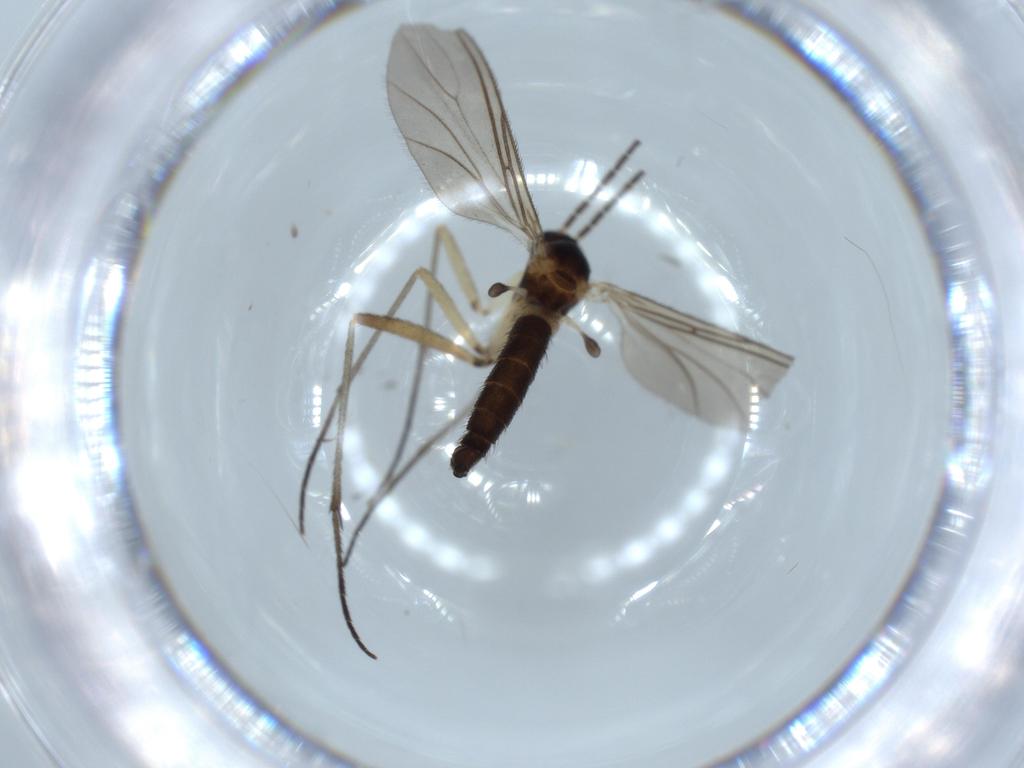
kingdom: Animalia
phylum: Arthropoda
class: Insecta
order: Diptera
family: Sciaridae
